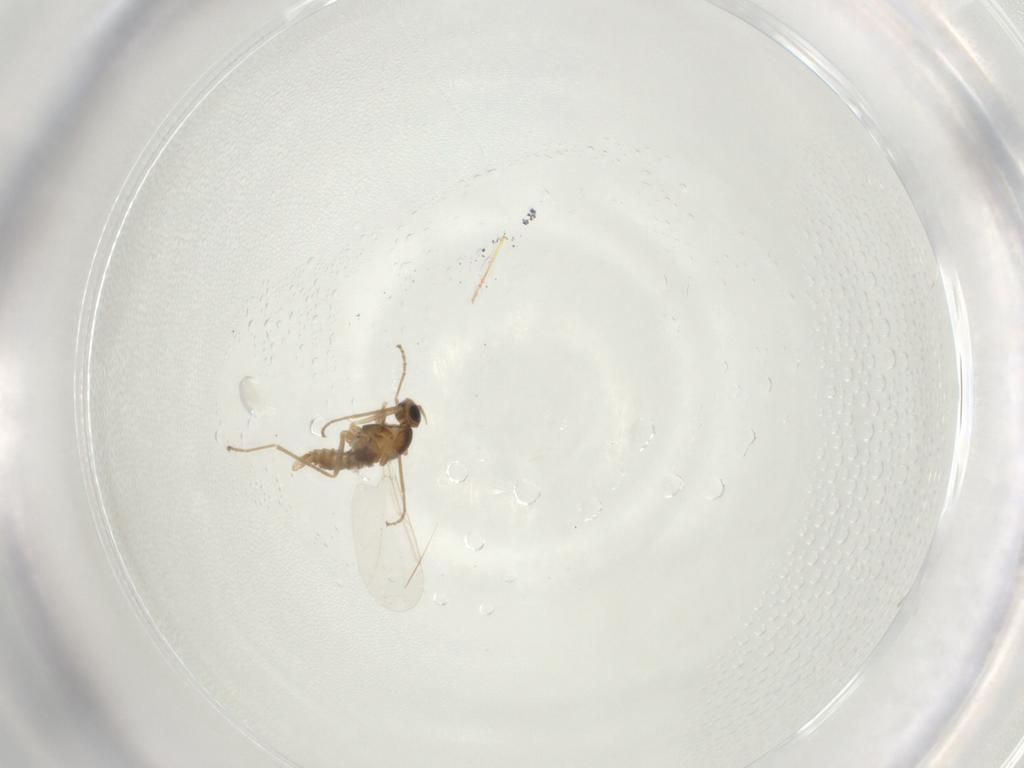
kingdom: Animalia
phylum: Arthropoda
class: Insecta
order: Diptera
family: Cecidomyiidae
